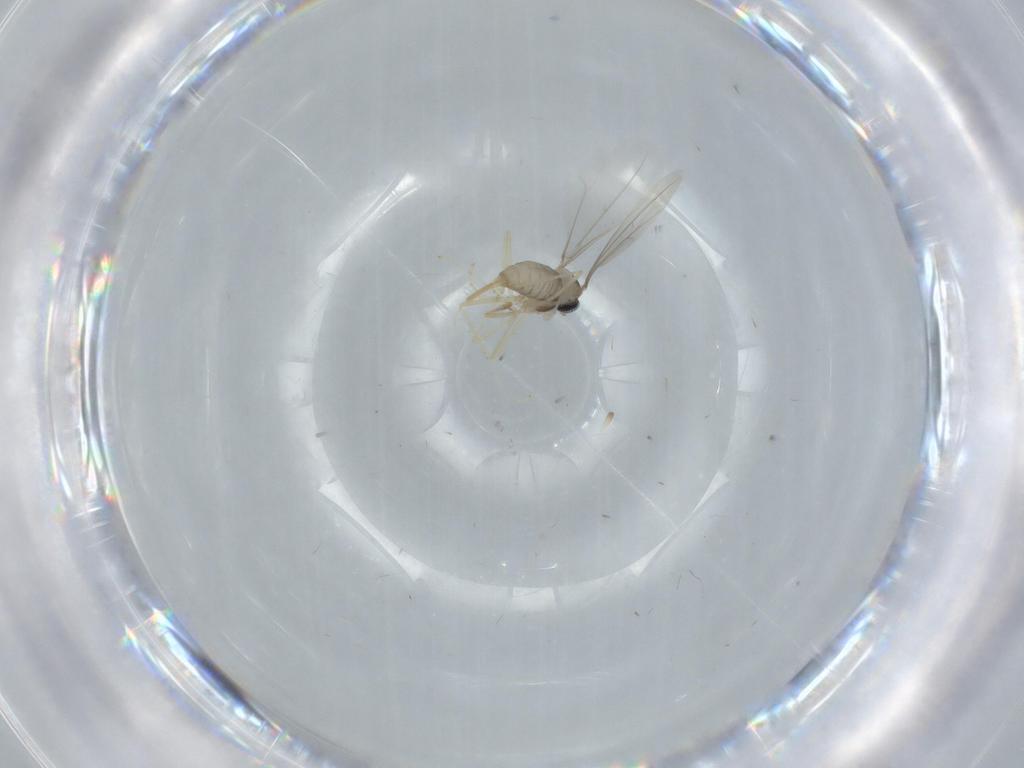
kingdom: Animalia
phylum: Arthropoda
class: Insecta
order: Diptera
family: Cecidomyiidae
